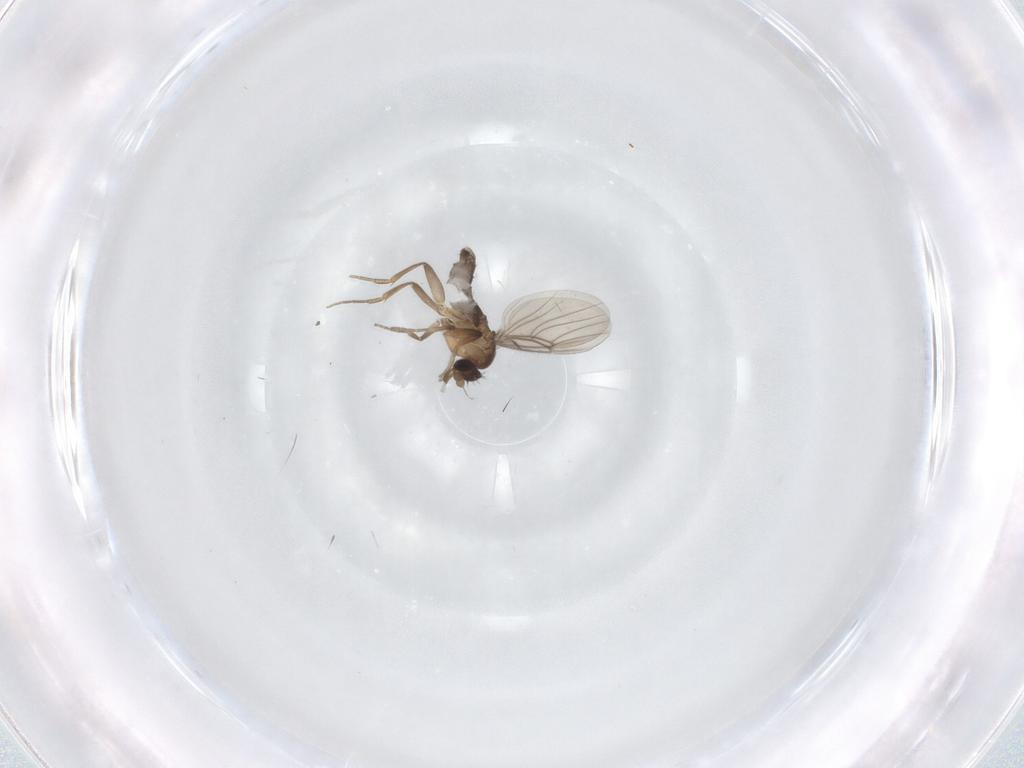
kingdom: Animalia
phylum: Arthropoda
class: Insecta
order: Diptera
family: Phoridae
